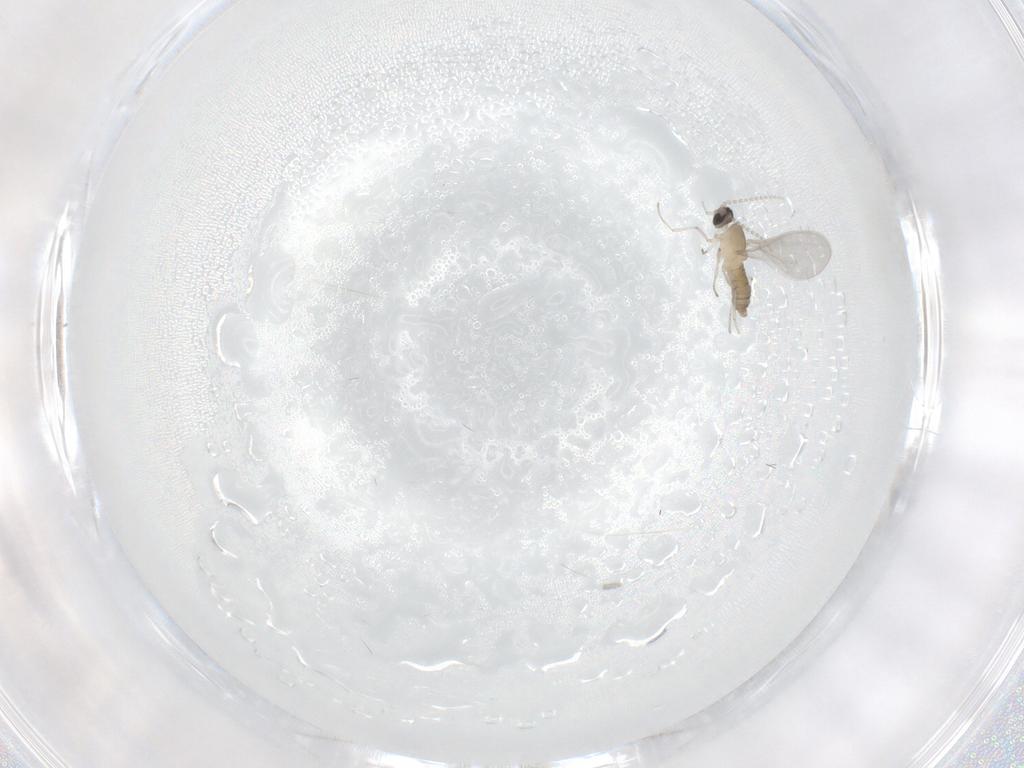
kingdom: Animalia
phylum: Arthropoda
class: Insecta
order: Diptera
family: Cecidomyiidae
